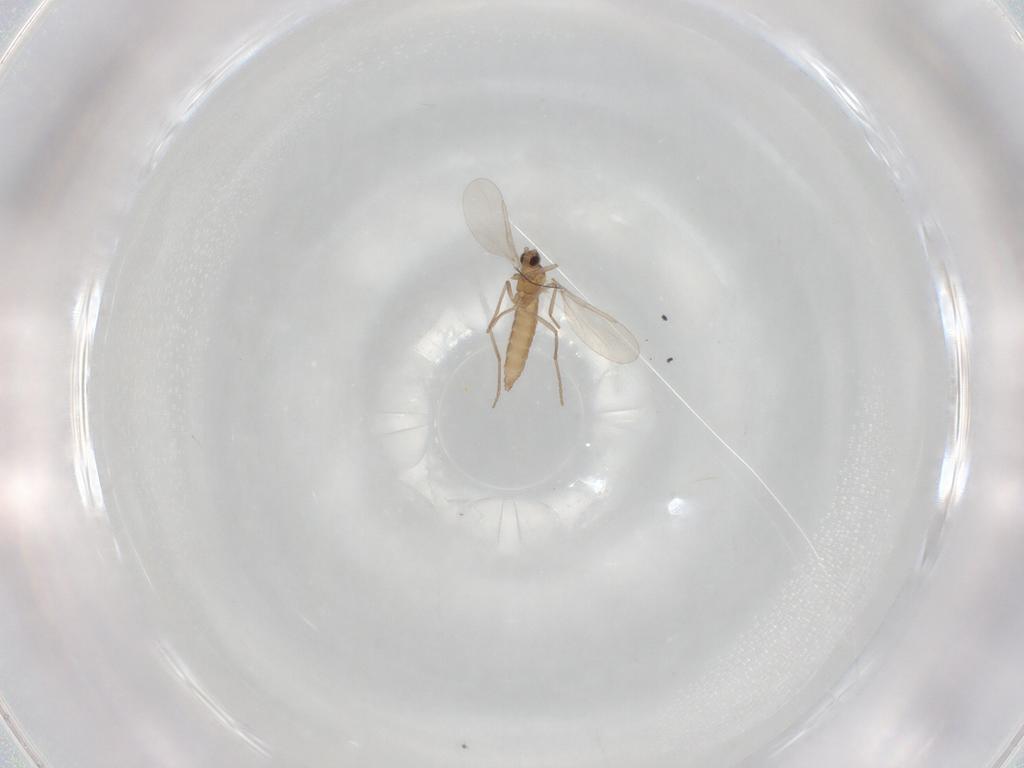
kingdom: Animalia
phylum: Arthropoda
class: Insecta
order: Diptera
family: Cecidomyiidae
